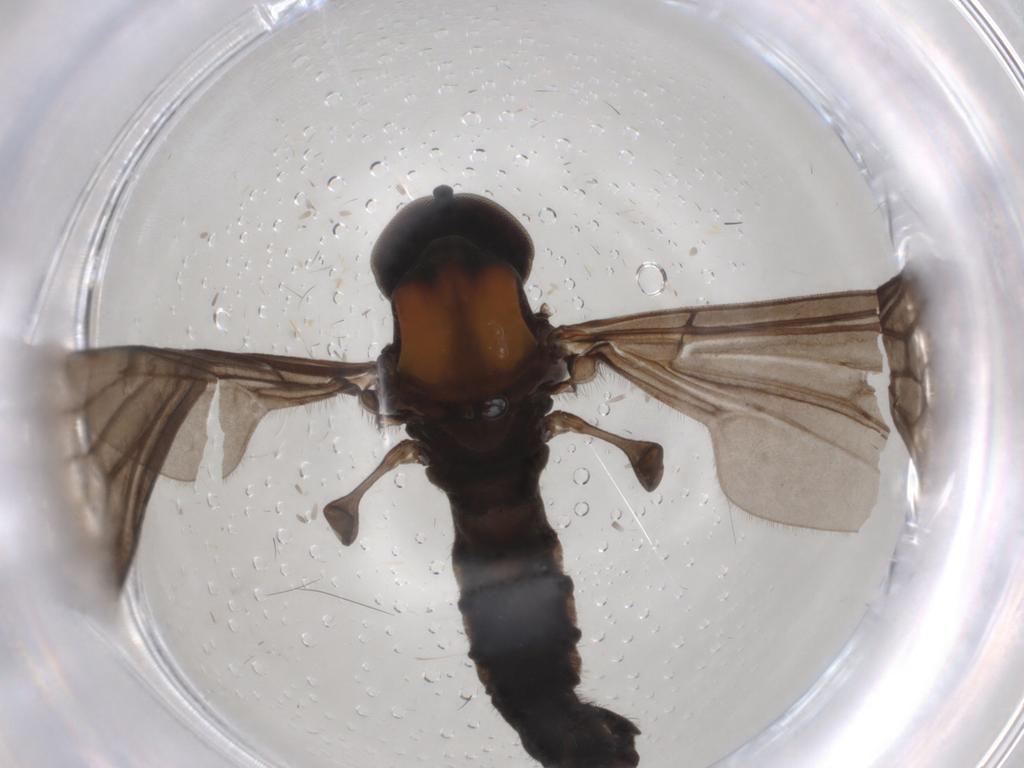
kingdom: Animalia
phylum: Arthropoda
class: Insecta
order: Diptera
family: Chironomidae
